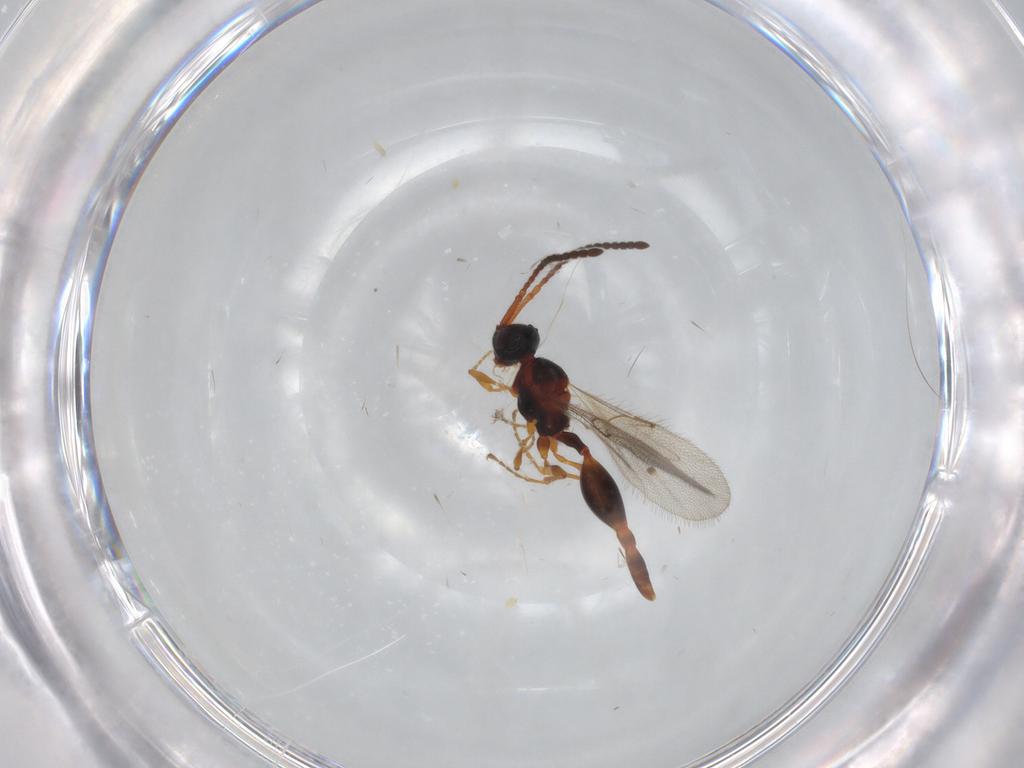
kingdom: Animalia
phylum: Arthropoda
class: Insecta
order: Hymenoptera
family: Diapriidae
